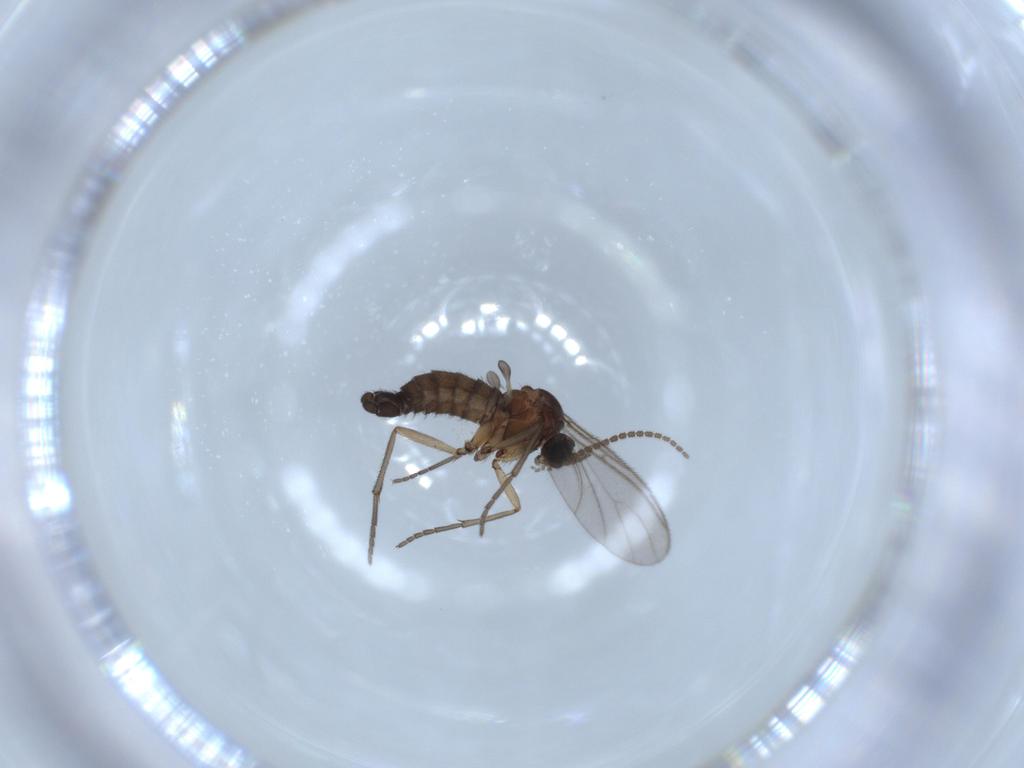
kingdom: Animalia
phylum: Arthropoda
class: Insecta
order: Diptera
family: Sciaridae
